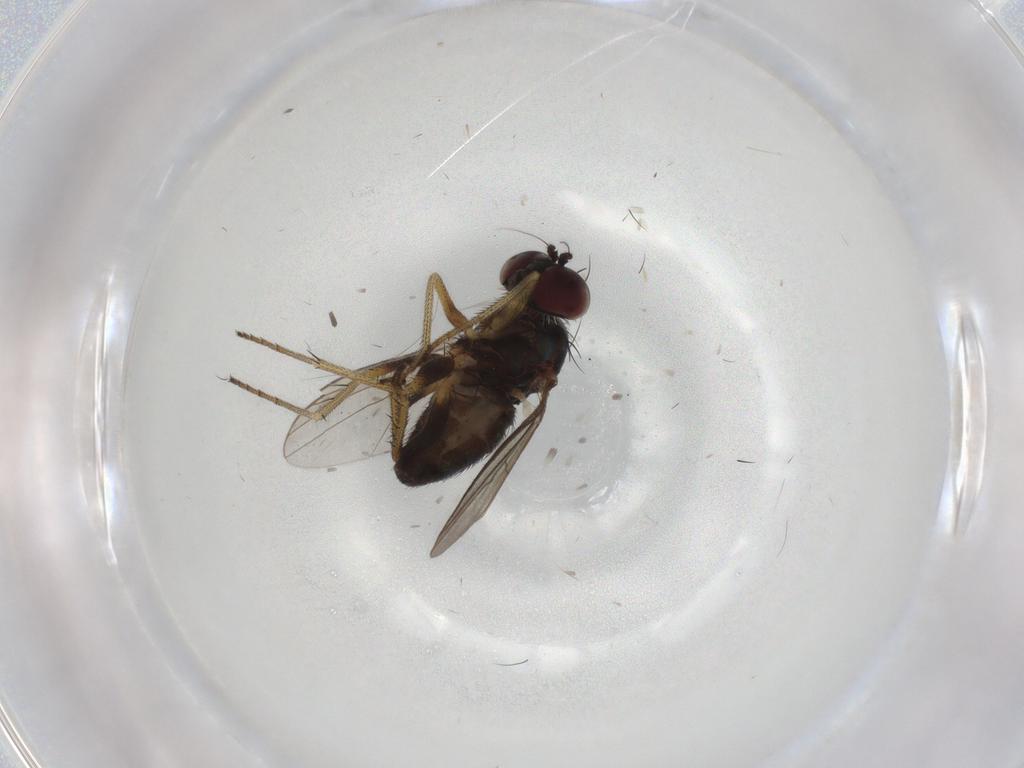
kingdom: Animalia
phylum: Arthropoda
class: Insecta
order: Diptera
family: Dolichopodidae
